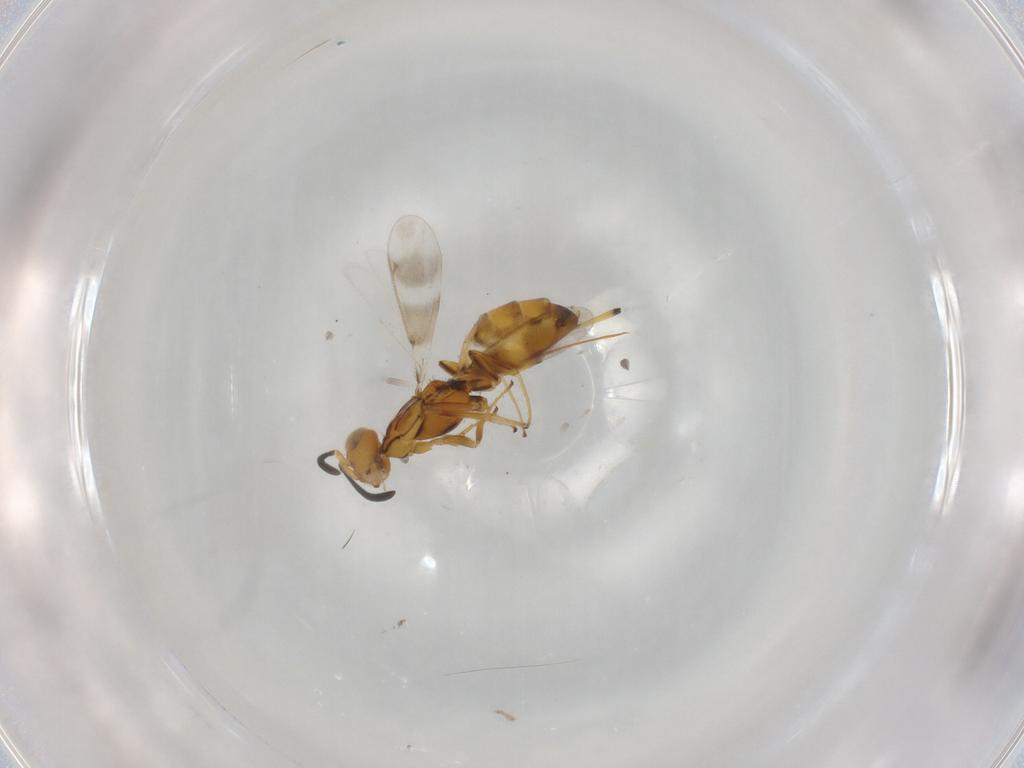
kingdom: Animalia
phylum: Arthropoda
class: Insecta
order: Hymenoptera
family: Eupelmidae
